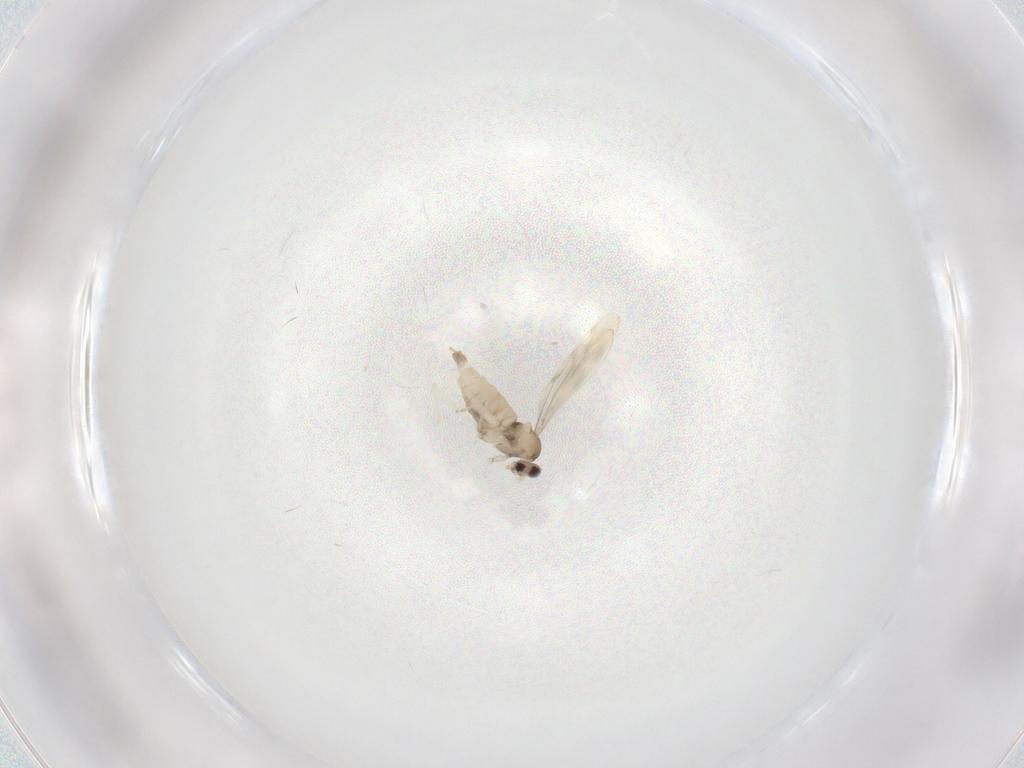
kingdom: Animalia
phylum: Arthropoda
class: Insecta
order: Diptera
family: Cecidomyiidae
